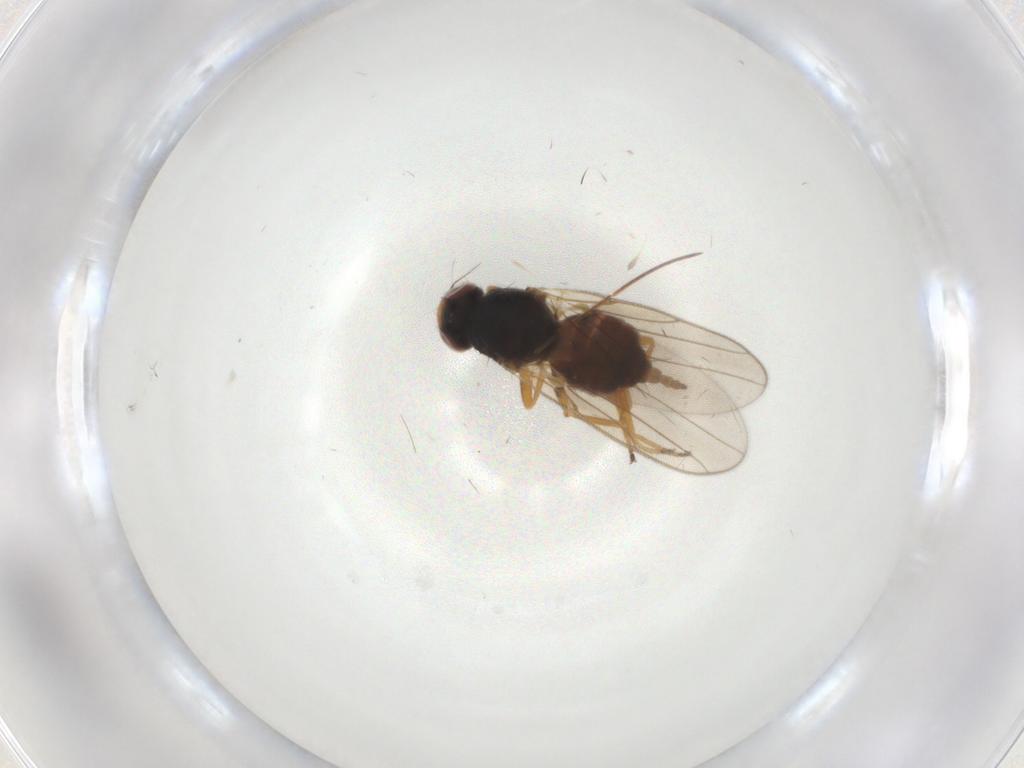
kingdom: Animalia
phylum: Arthropoda
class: Insecta
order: Diptera
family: Chloropidae
